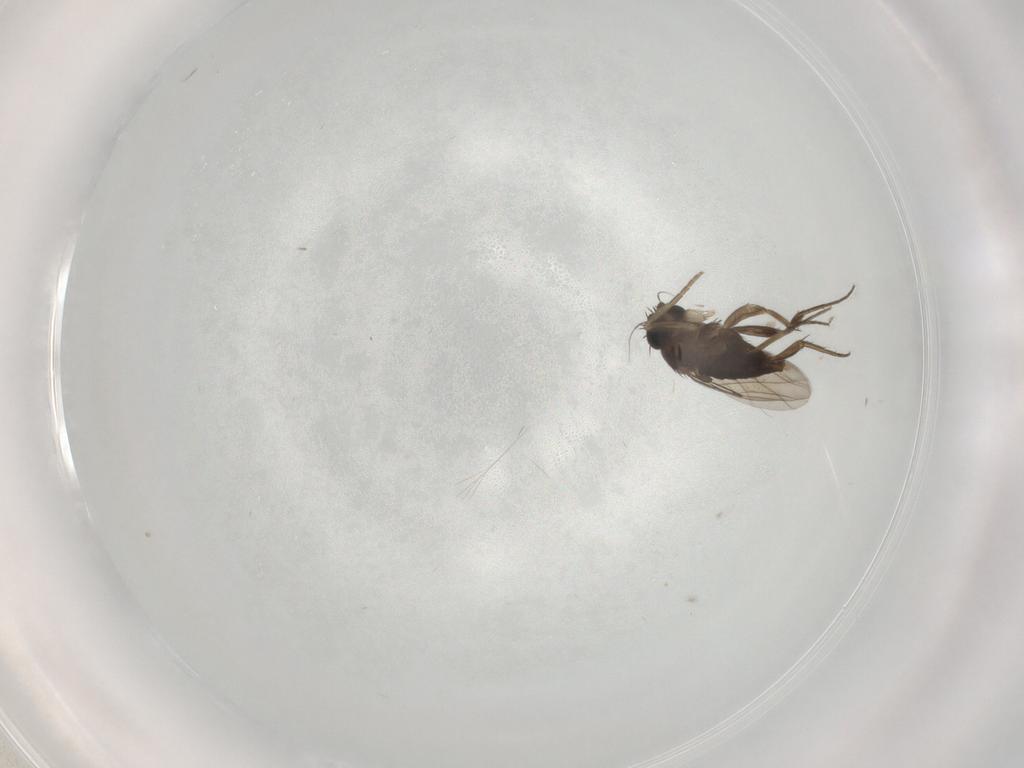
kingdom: Animalia
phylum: Arthropoda
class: Insecta
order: Diptera
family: Phoridae
